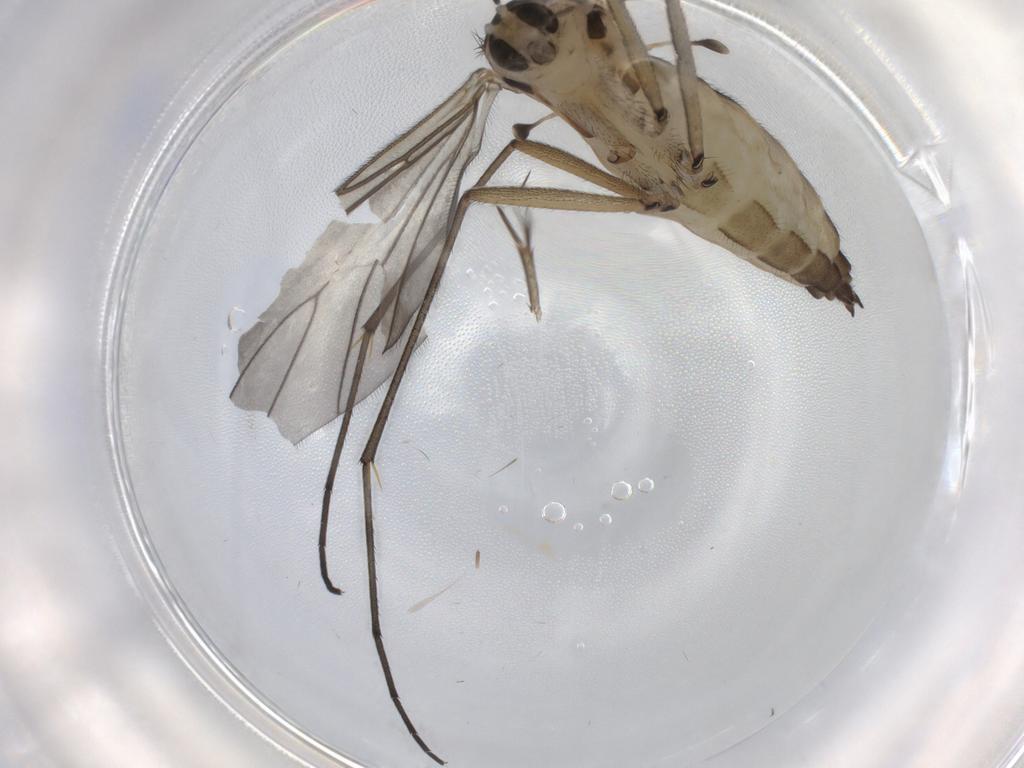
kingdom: Animalia
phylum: Arthropoda
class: Insecta
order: Diptera
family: Sciaridae
